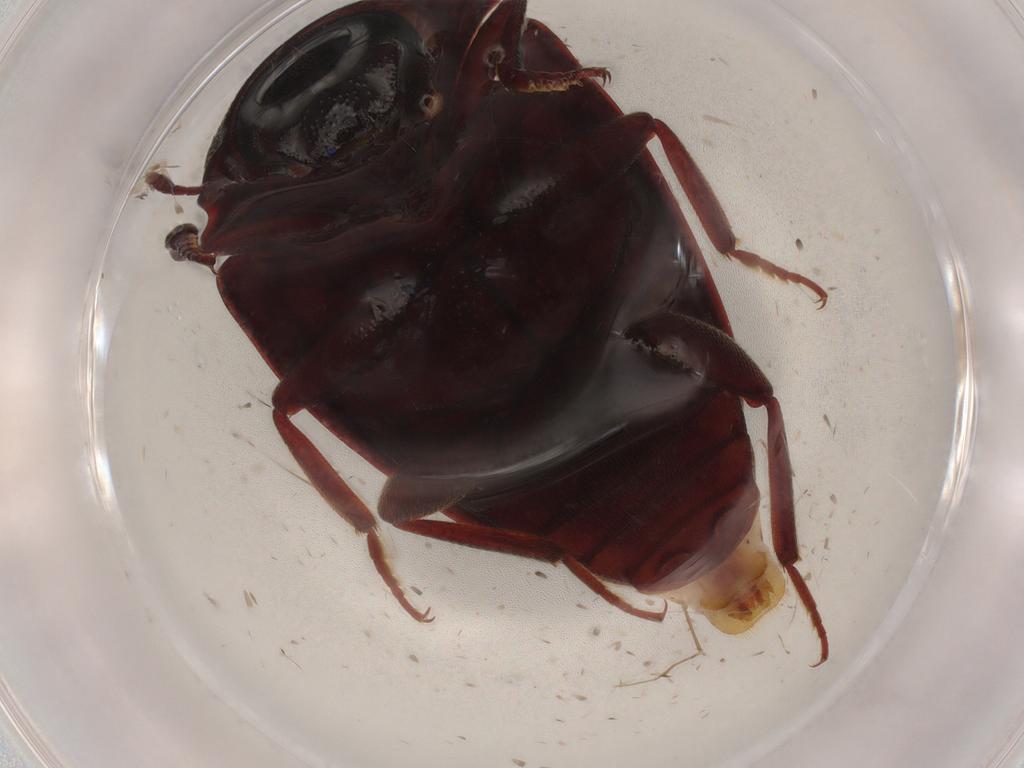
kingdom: Animalia
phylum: Arthropoda
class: Insecta
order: Coleoptera
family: Zopheridae
